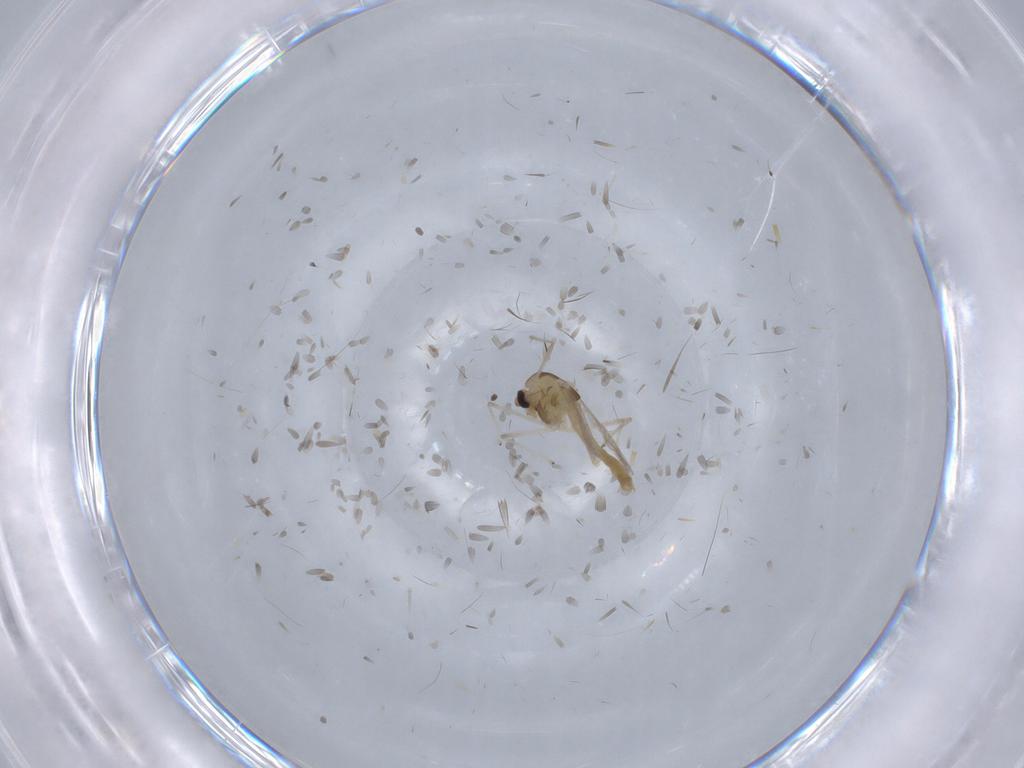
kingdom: Animalia
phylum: Arthropoda
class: Insecta
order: Diptera
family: Chironomidae
